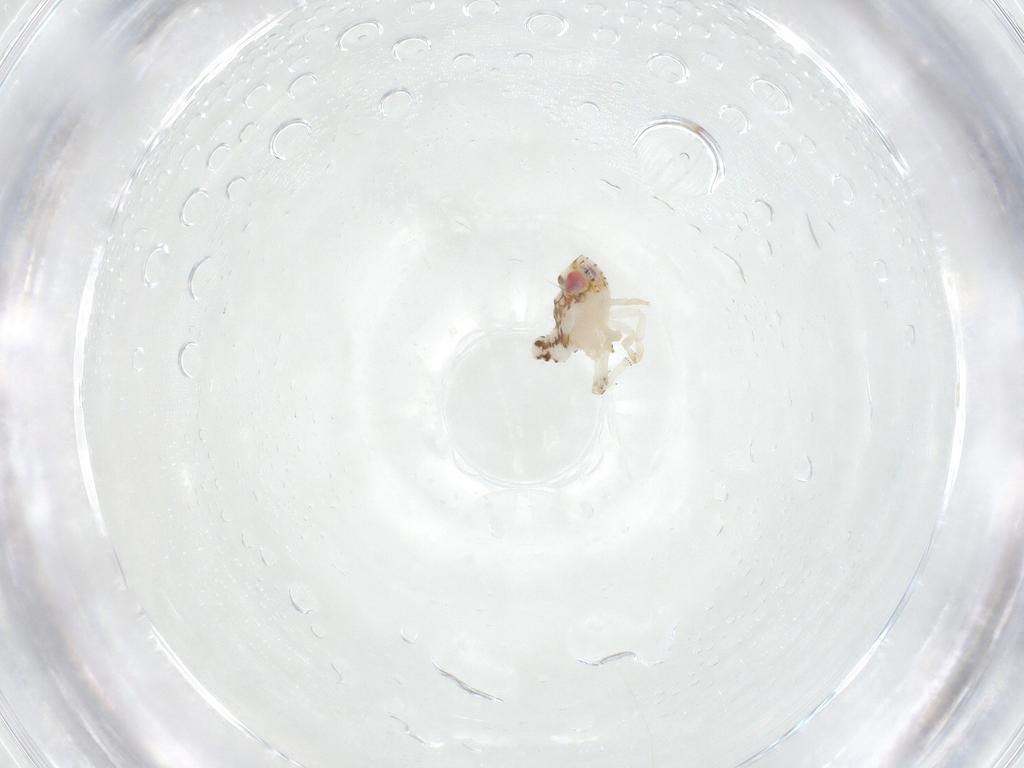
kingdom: Animalia
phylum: Arthropoda
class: Insecta
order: Hemiptera
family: Nogodinidae
